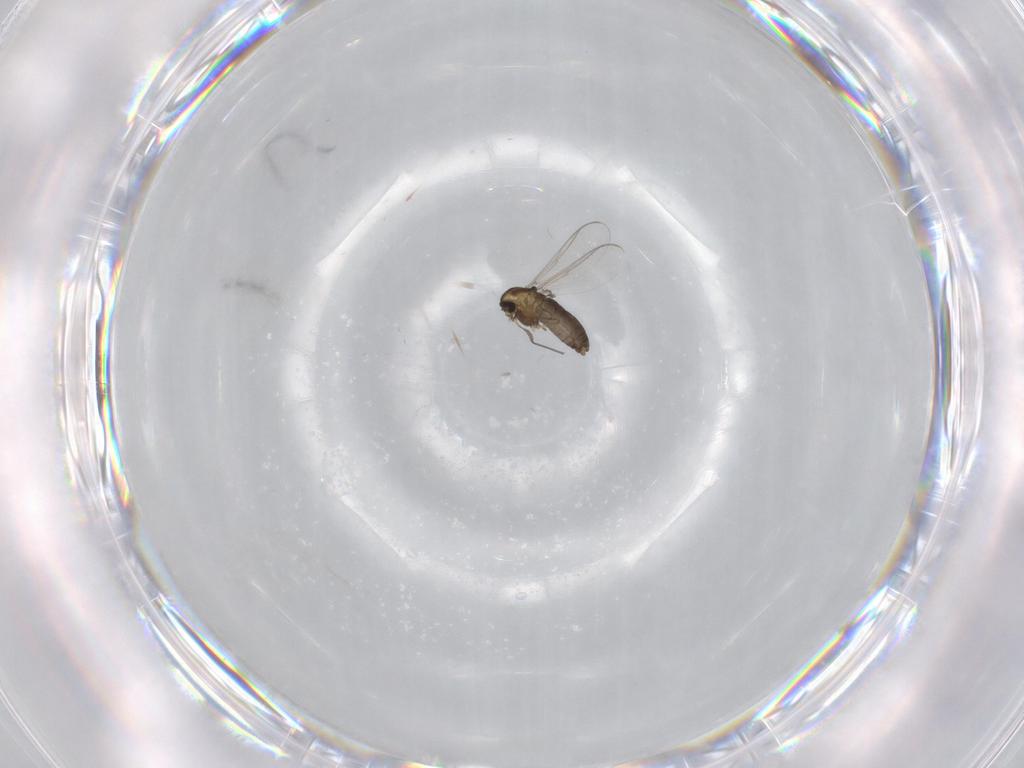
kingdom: Animalia
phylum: Arthropoda
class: Insecta
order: Diptera
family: Chironomidae
